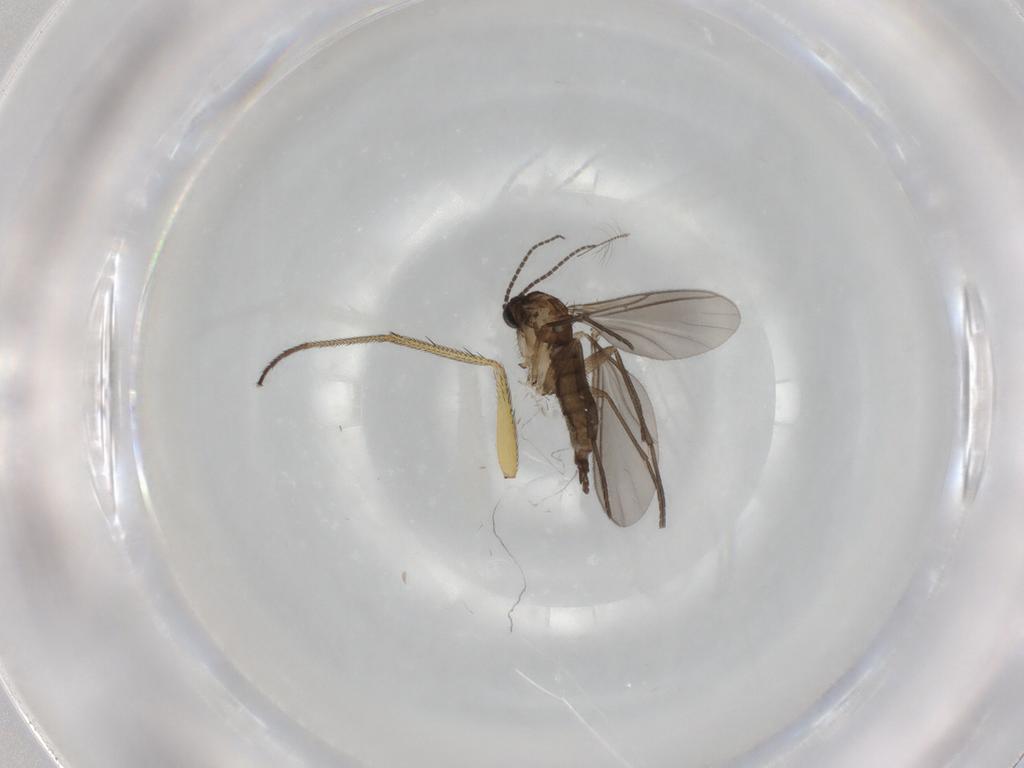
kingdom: Animalia
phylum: Arthropoda
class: Insecta
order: Diptera
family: Dolichopodidae
